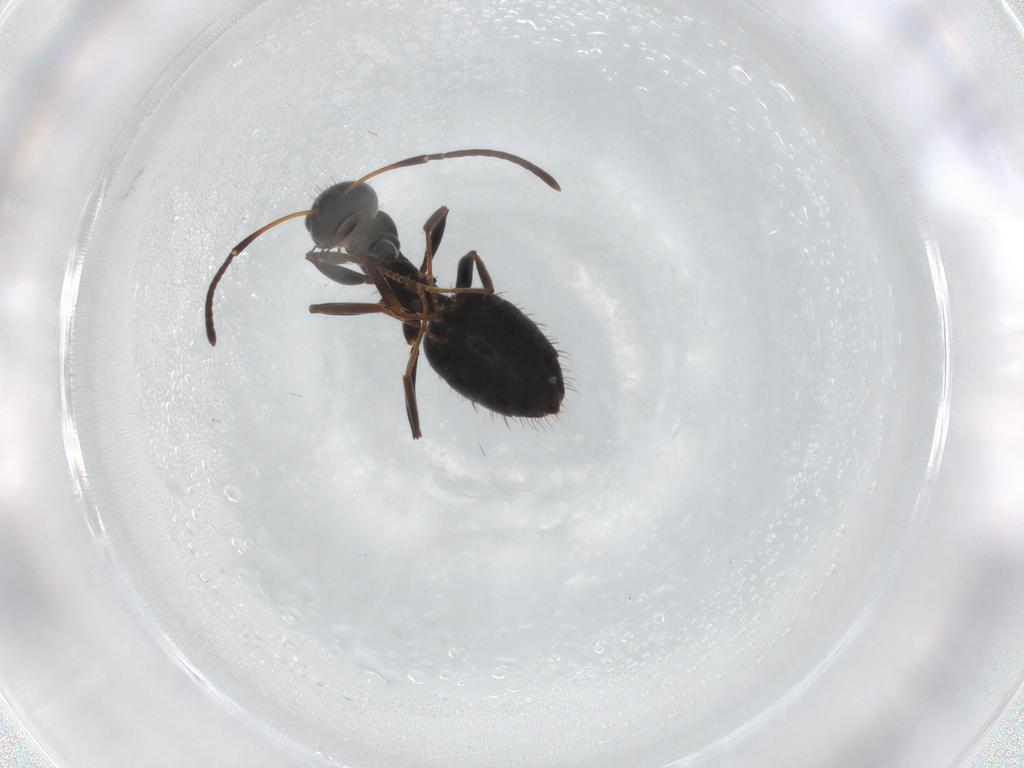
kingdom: Animalia
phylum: Arthropoda
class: Insecta
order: Hymenoptera
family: Formicidae
